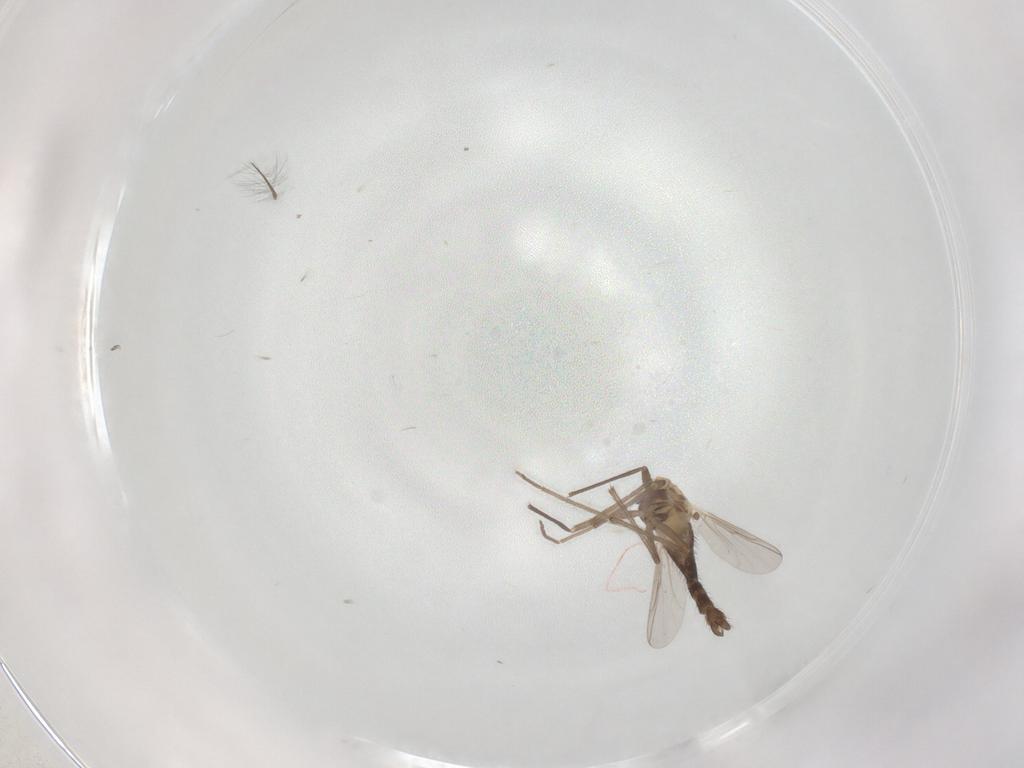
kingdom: Animalia
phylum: Arthropoda
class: Insecta
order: Diptera
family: Chironomidae
